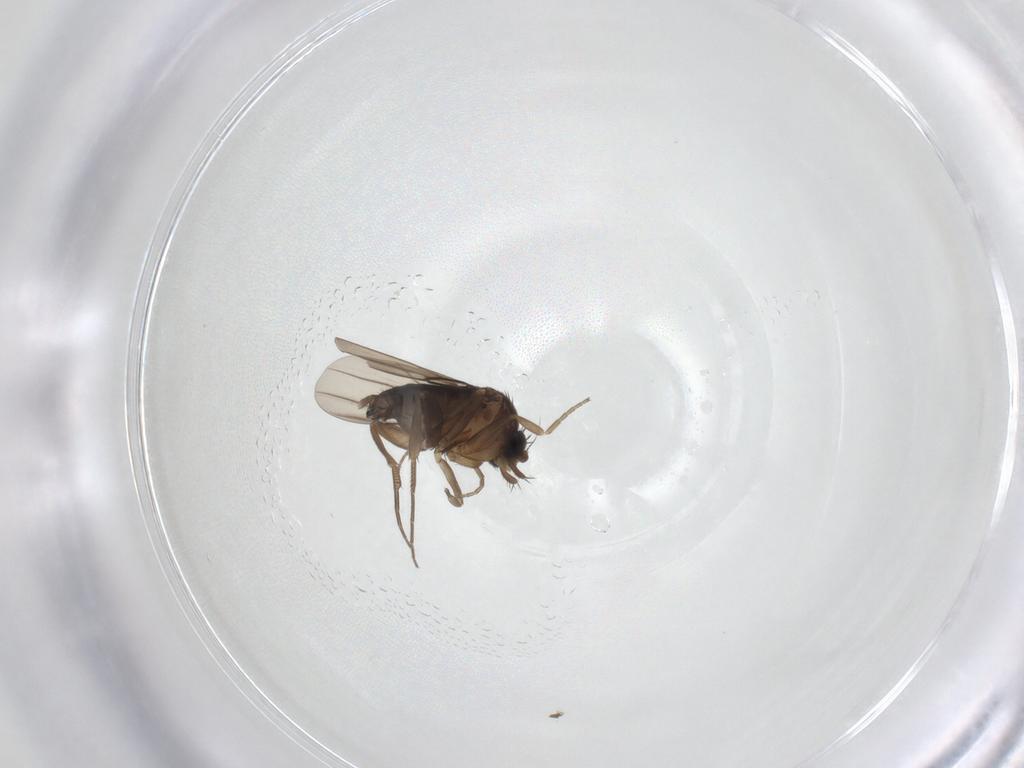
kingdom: Animalia
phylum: Arthropoda
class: Insecta
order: Diptera
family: Phoridae
